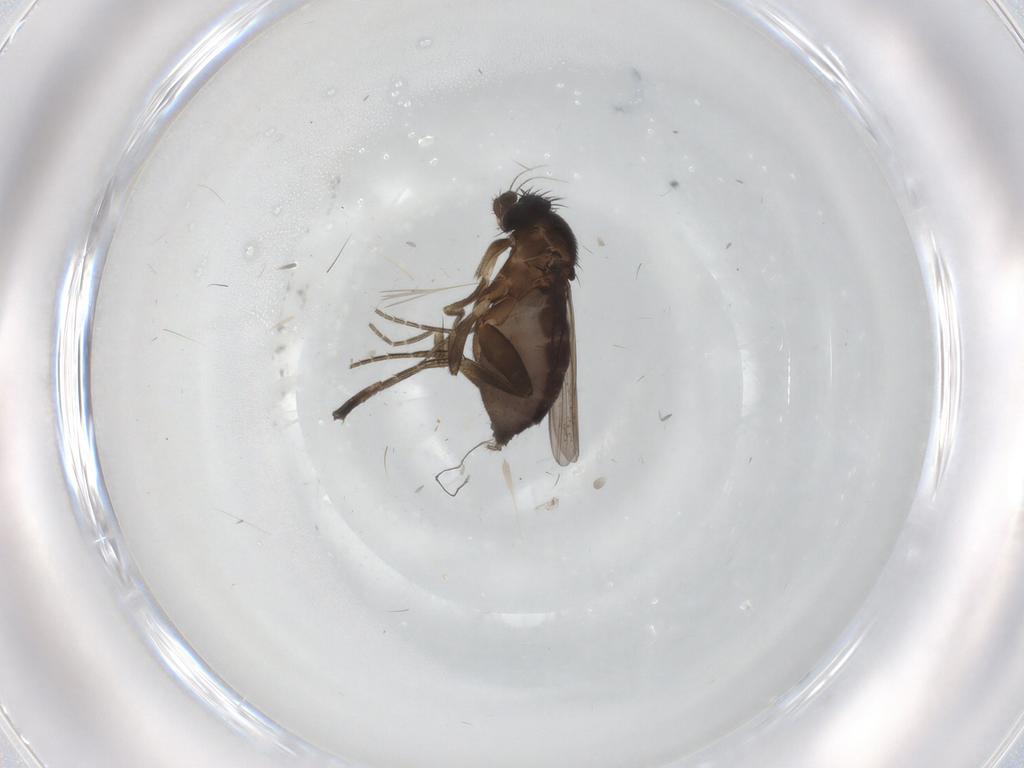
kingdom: Animalia
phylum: Arthropoda
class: Insecta
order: Diptera
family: Phoridae
